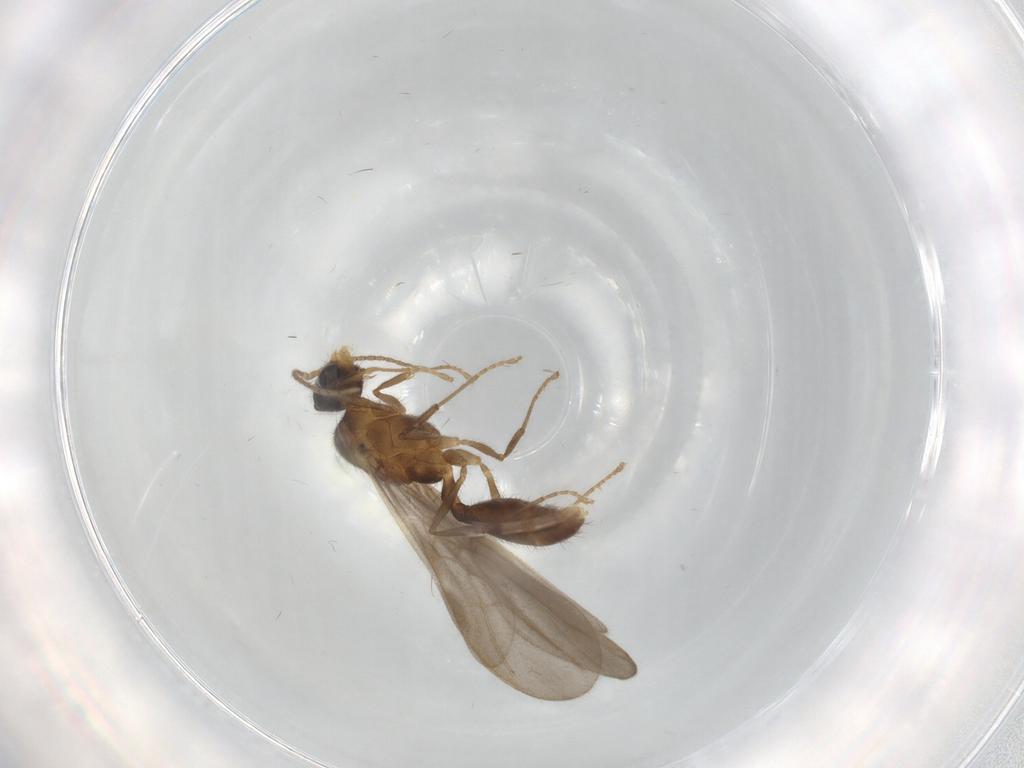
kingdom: Animalia
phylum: Arthropoda
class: Insecta
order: Hymenoptera
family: Formicidae
